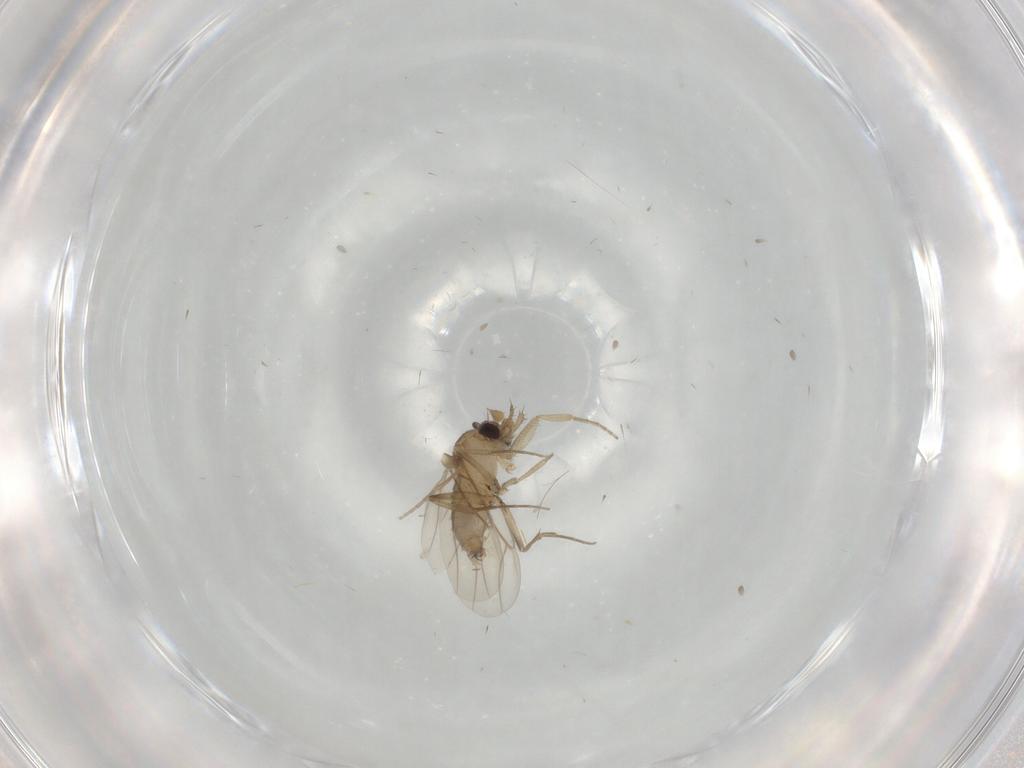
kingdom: Animalia
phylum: Arthropoda
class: Insecta
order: Diptera
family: Phoridae
